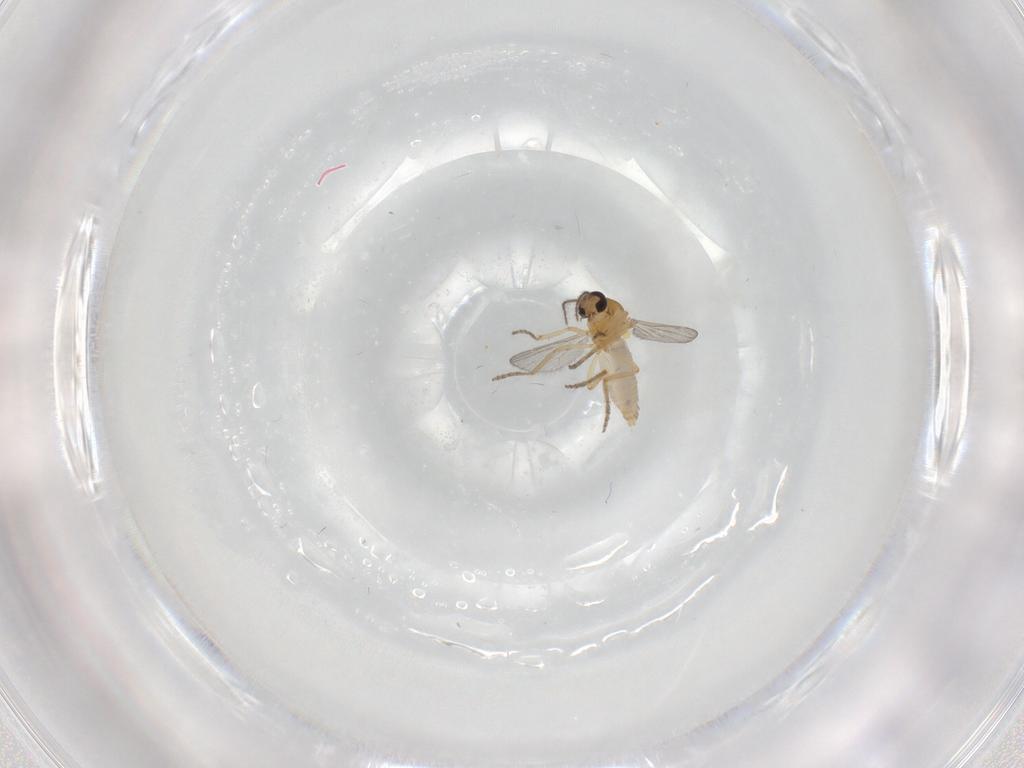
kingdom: Animalia
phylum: Arthropoda
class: Insecta
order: Diptera
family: Ceratopogonidae
